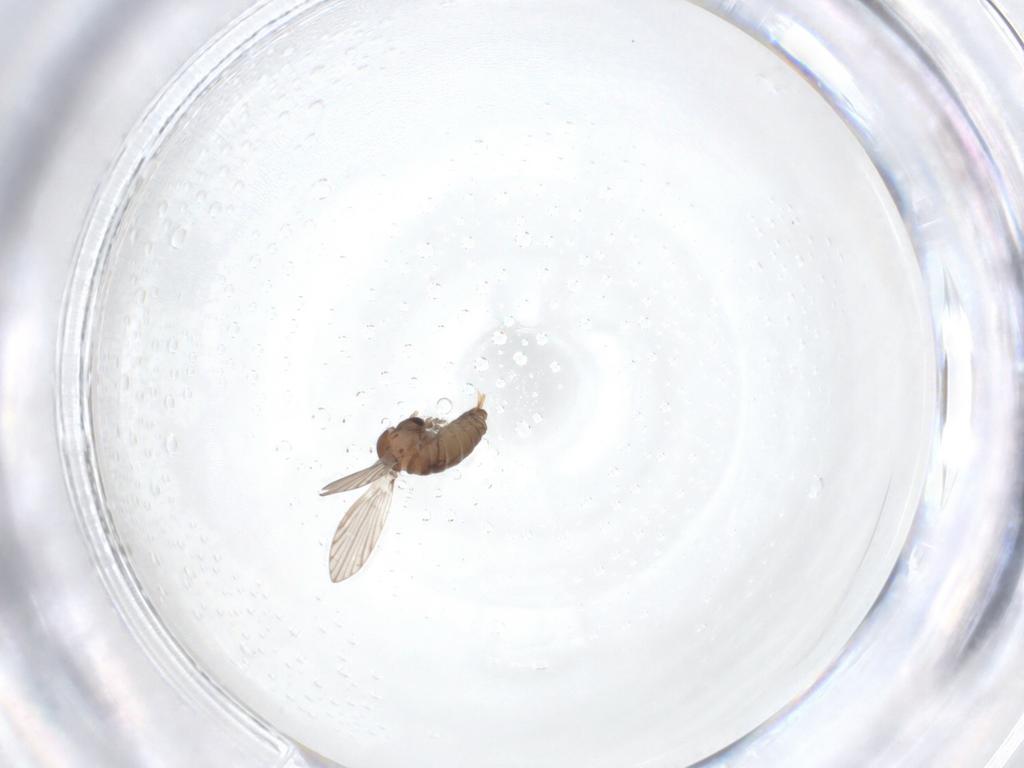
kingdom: Animalia
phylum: Arthropoda
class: Insecta
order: Diptera
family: Psychodidae
